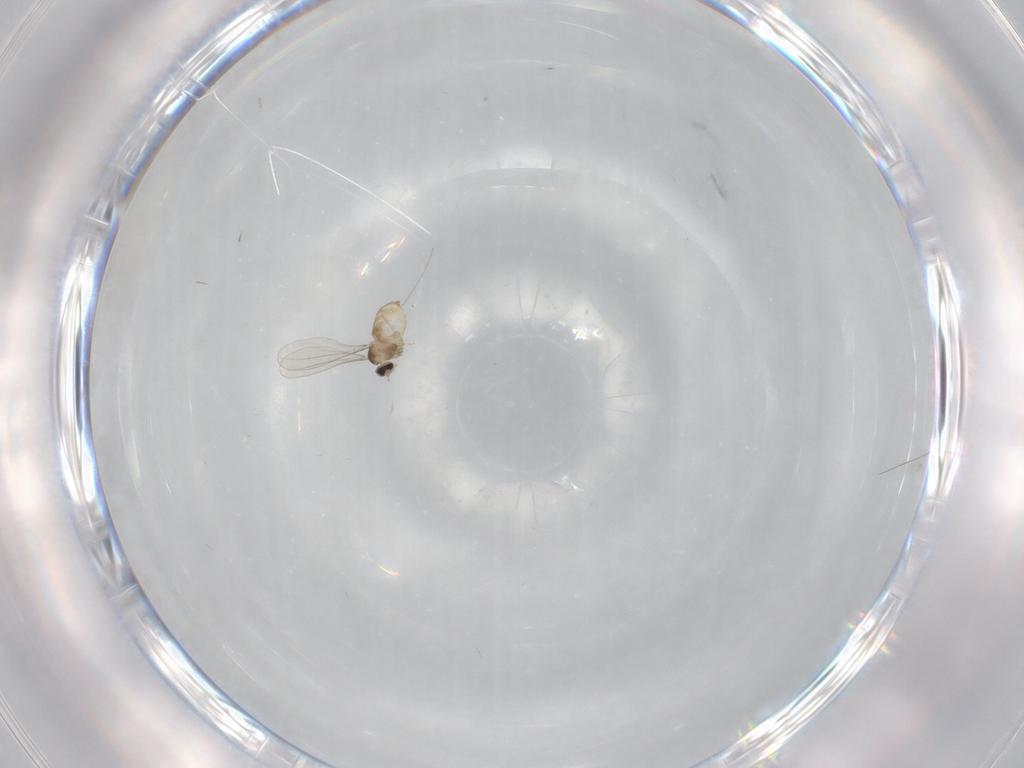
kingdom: Animalia
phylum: Arthropoda
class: Insecta
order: Diptera
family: Cecidomyiidae
